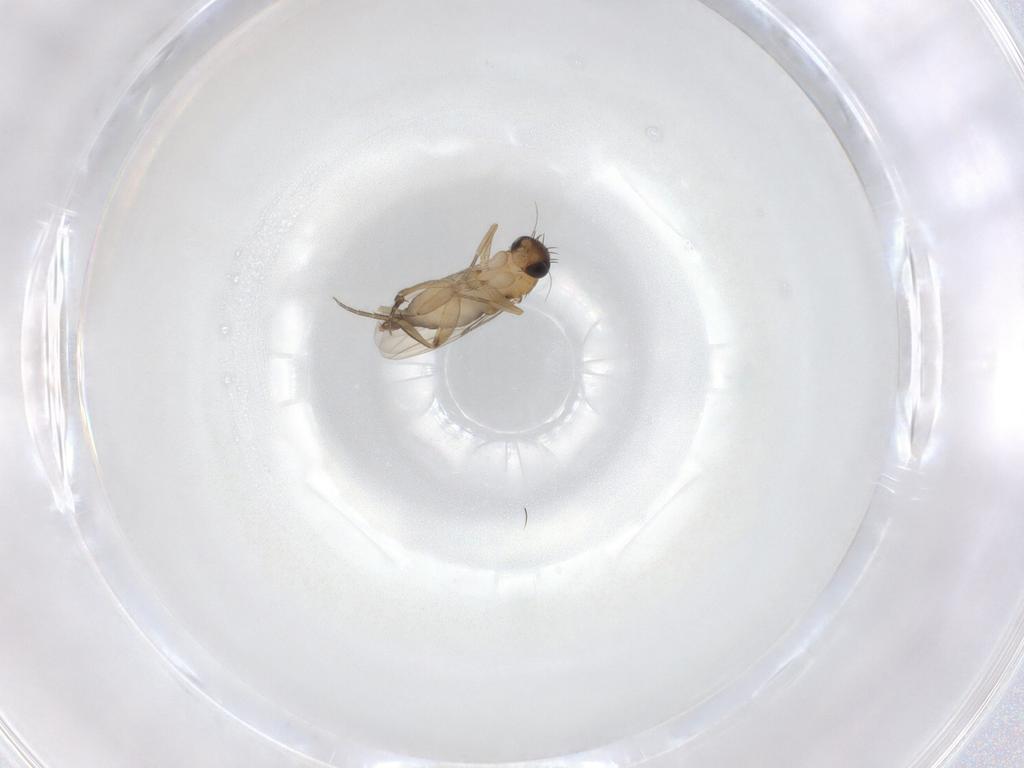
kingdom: Animalia
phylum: Arthropoda
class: Insecta
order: Diptera
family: Phoridae
